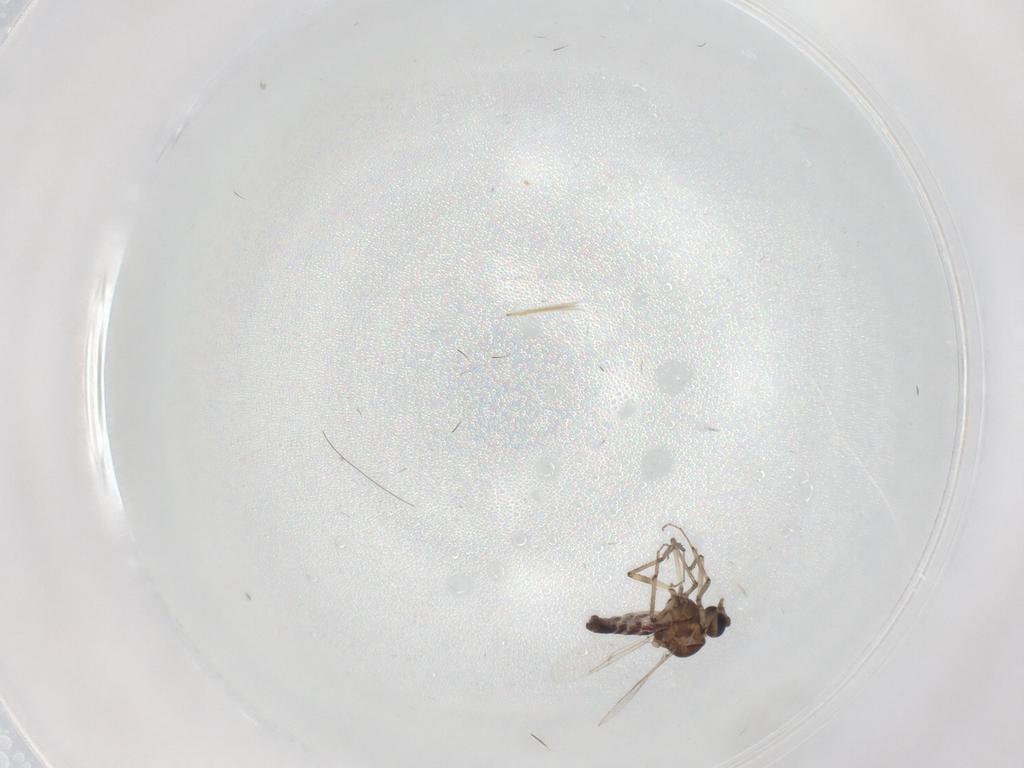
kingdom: Animalia
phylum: Arthropoda
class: Insecta
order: Diptera
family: Ceratopogonidae
